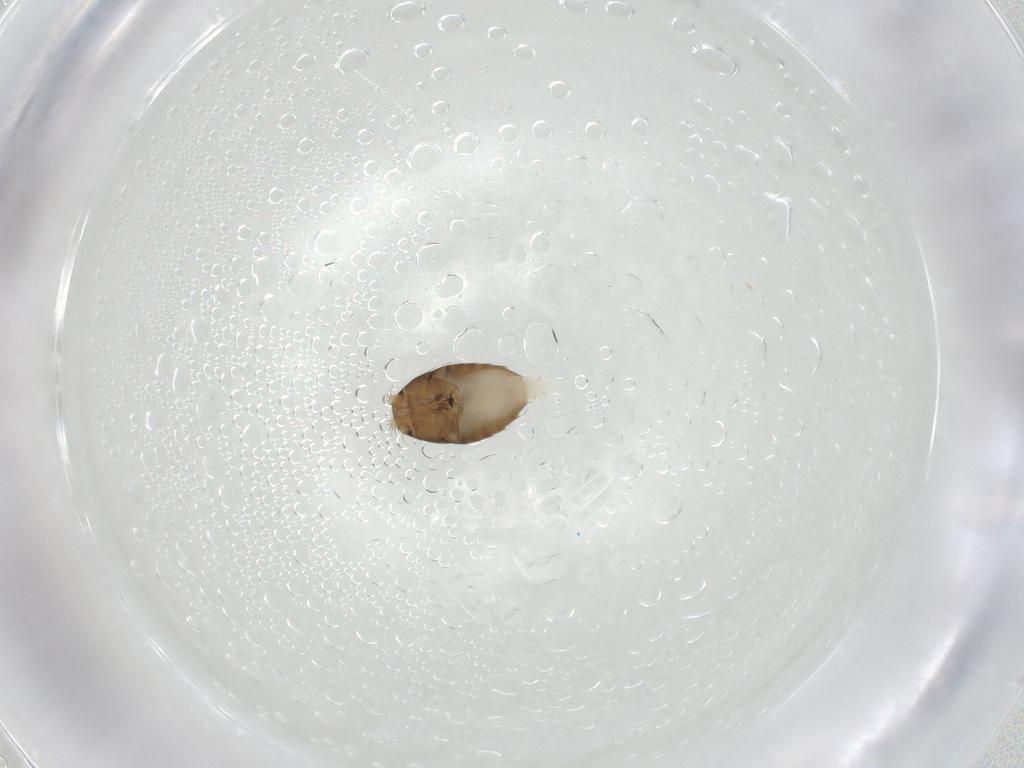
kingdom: Animalia
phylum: Arthropoda
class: Insecta
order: Diptera
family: Phoridae
